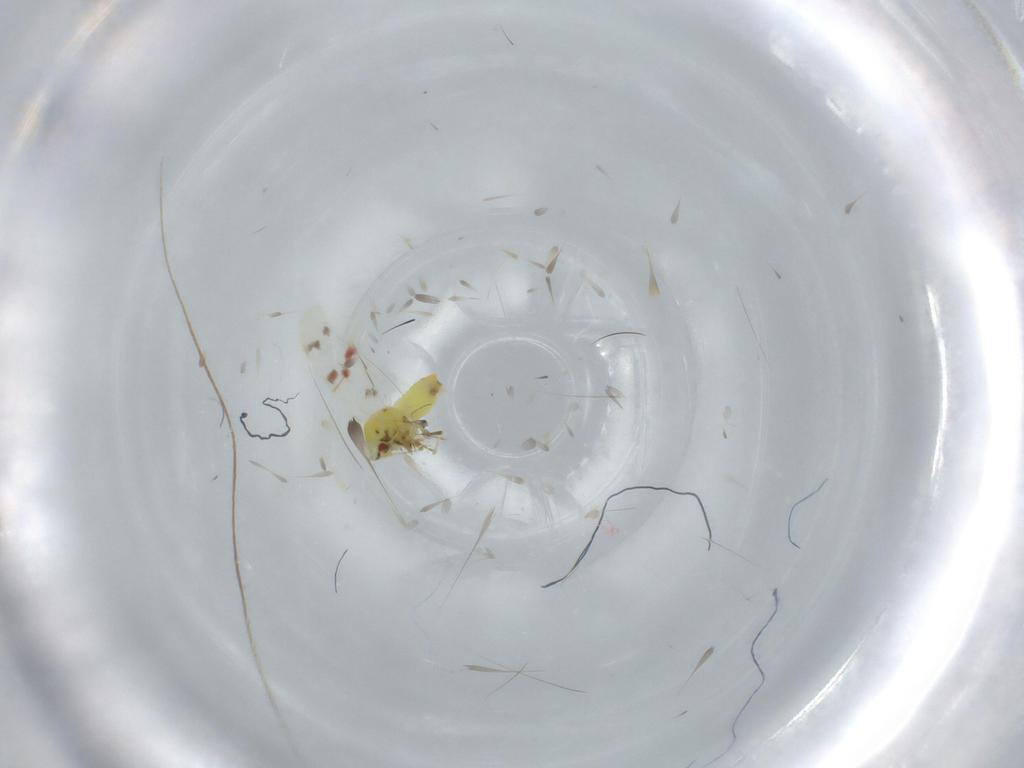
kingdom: Animalia
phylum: Arthropoda
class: Insecta
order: Hemiptera
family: Aleyrodidae
